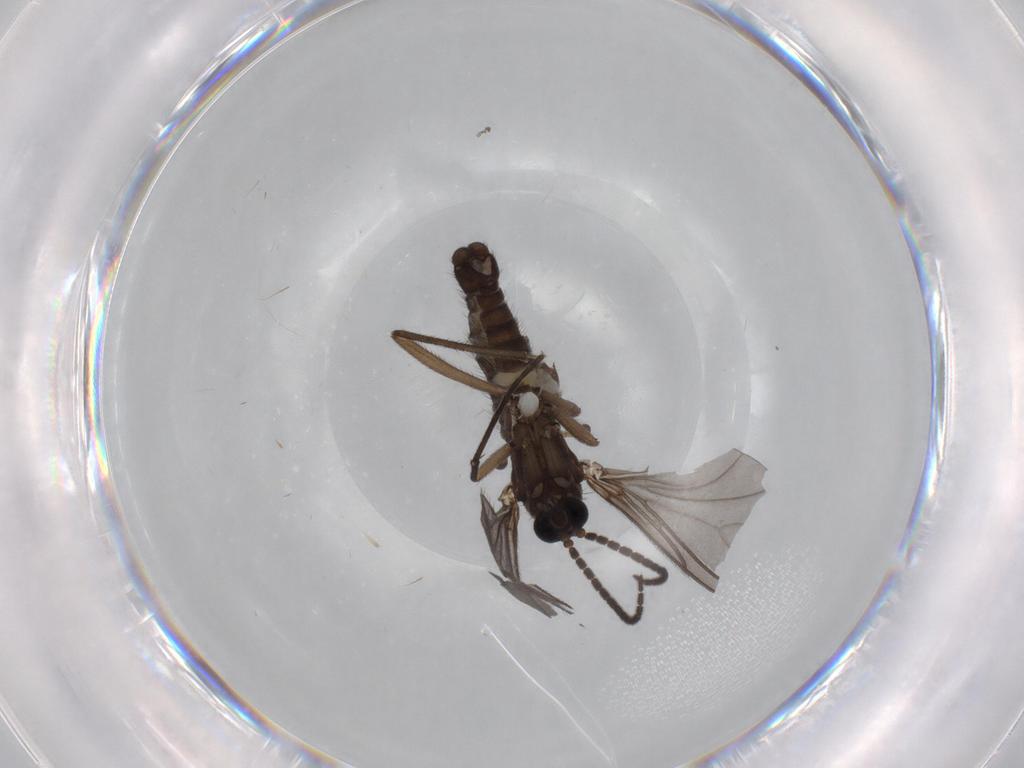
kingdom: Animalia
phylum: Arthropoda
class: Insecta
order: Diptera
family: Sciaridae
